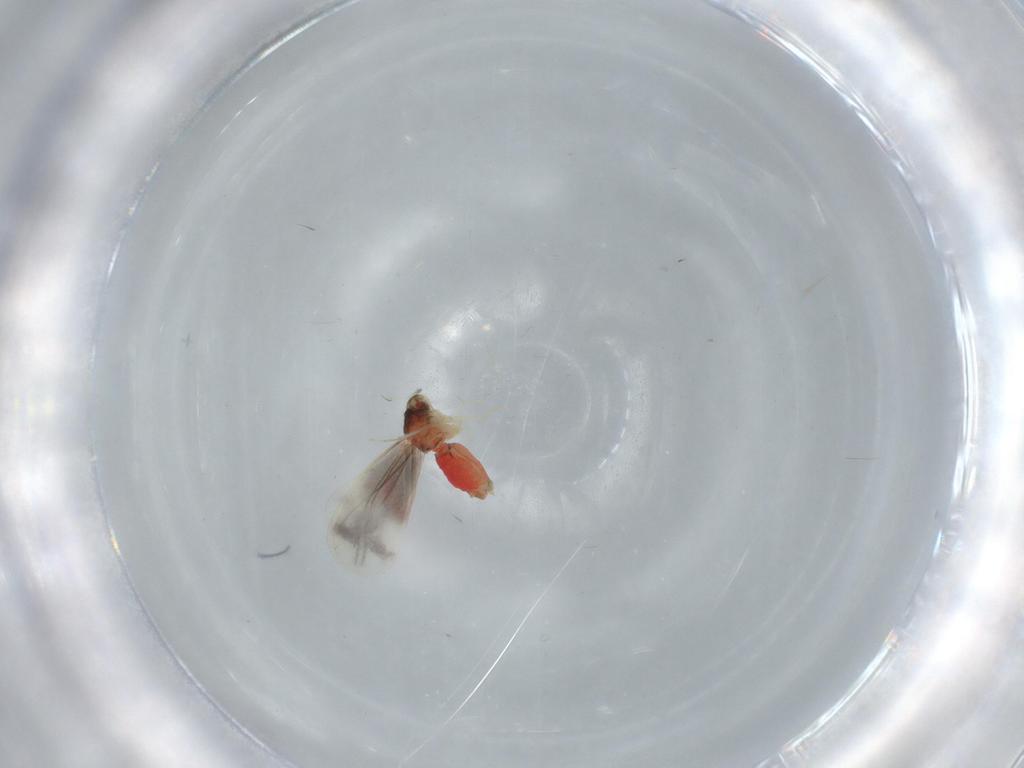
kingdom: Animalia
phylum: Arthropoda
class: Insecta
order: Hemiptera
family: Aleyrodidae
